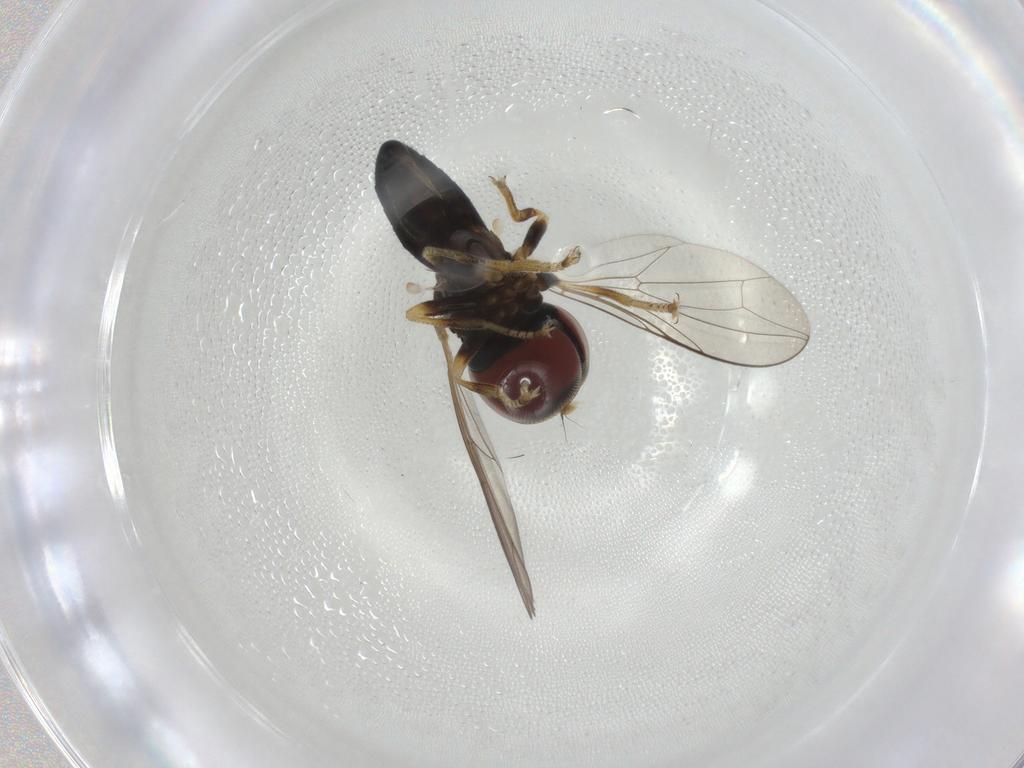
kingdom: Animalia
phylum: Arthropoda
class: Insecta
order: Diptera
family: Pipunculidae
